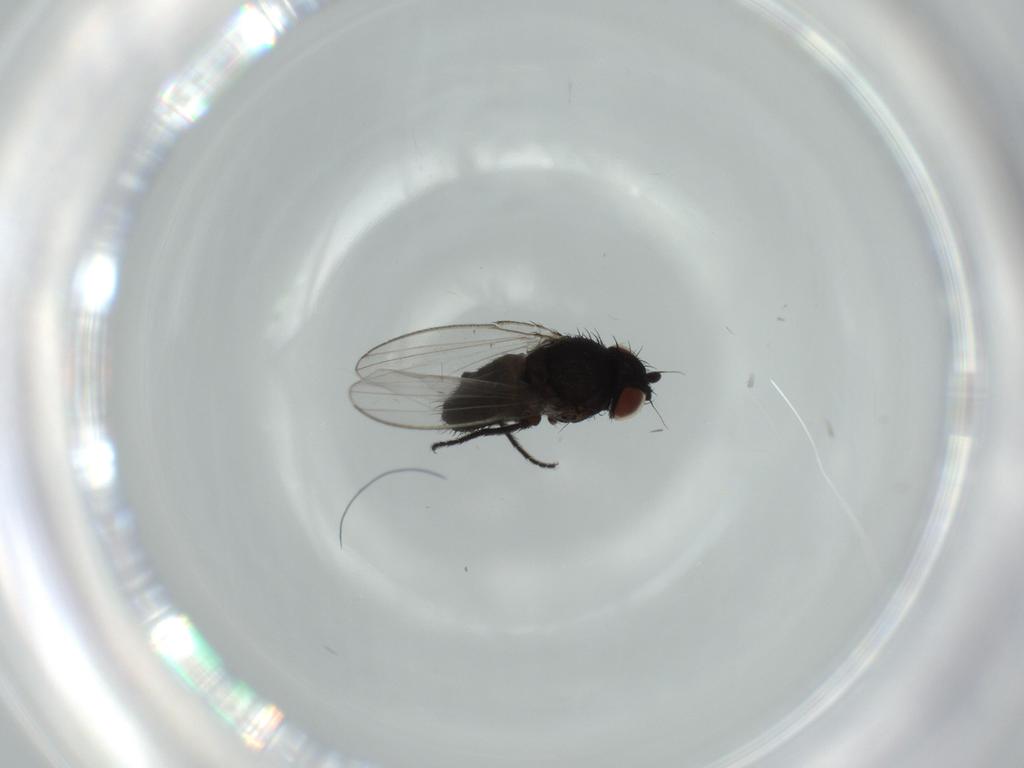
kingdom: Animalia
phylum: Arthropoda
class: Insecta
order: Diptera
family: Milichiidae
